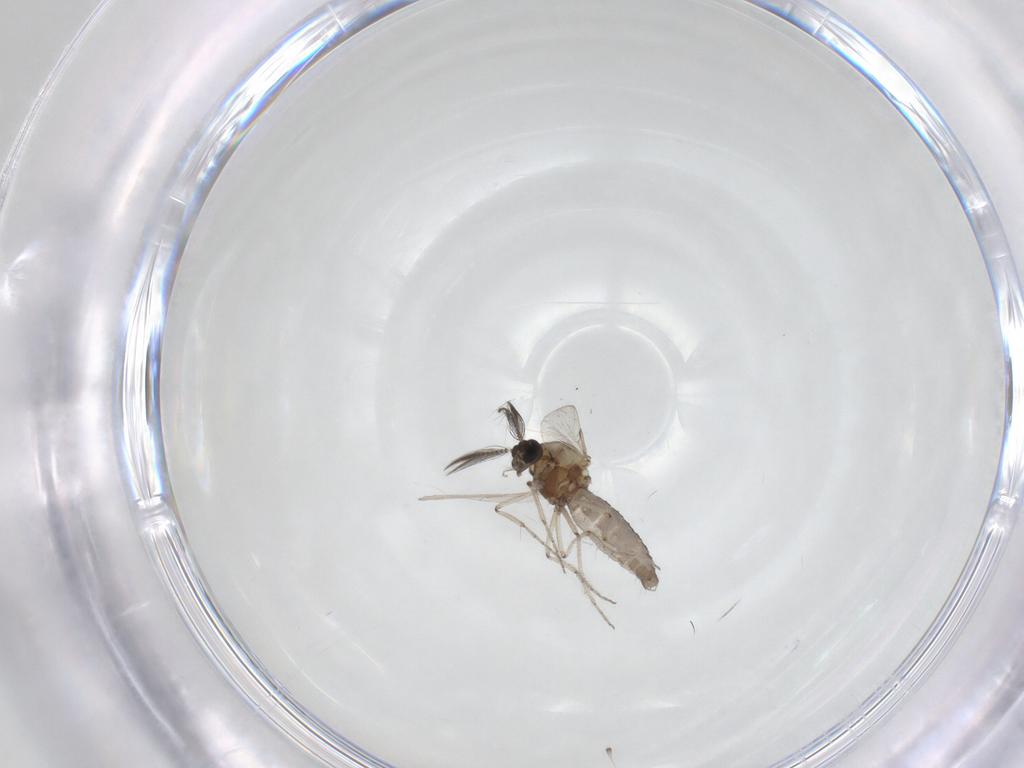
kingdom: Animalia
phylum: Arthropoda
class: Insecta
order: Diptera
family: Ceratopogonidae
